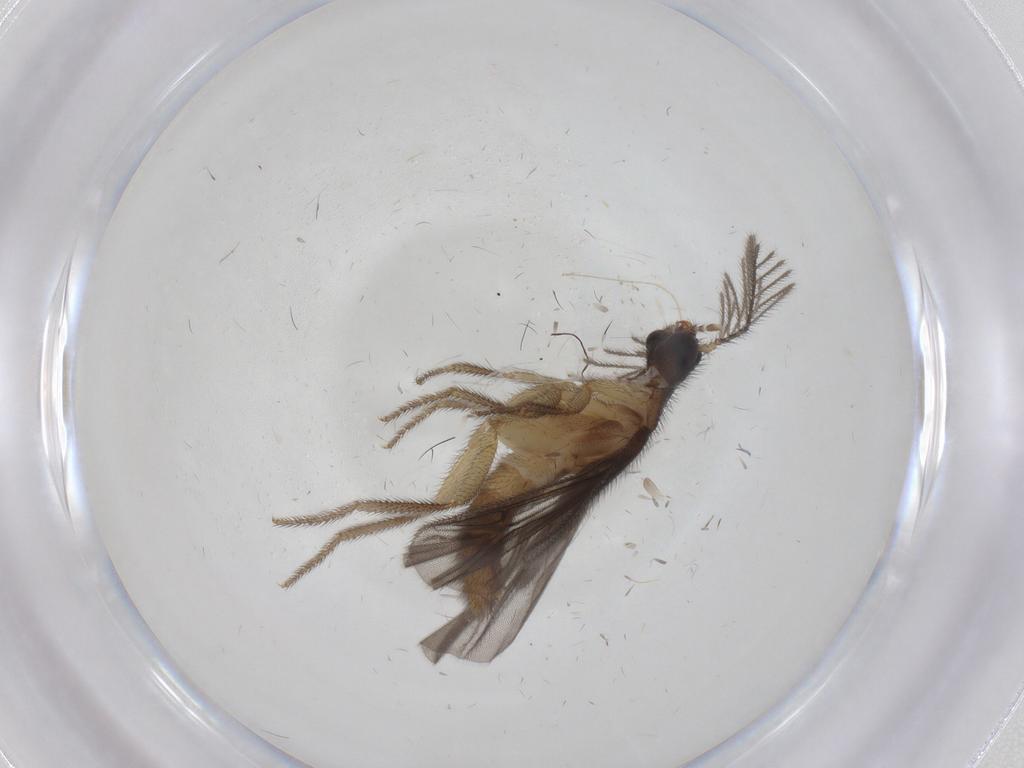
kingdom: Animalia
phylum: Arthropoda
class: Insecta
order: Coleoptera
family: Phengodidae
